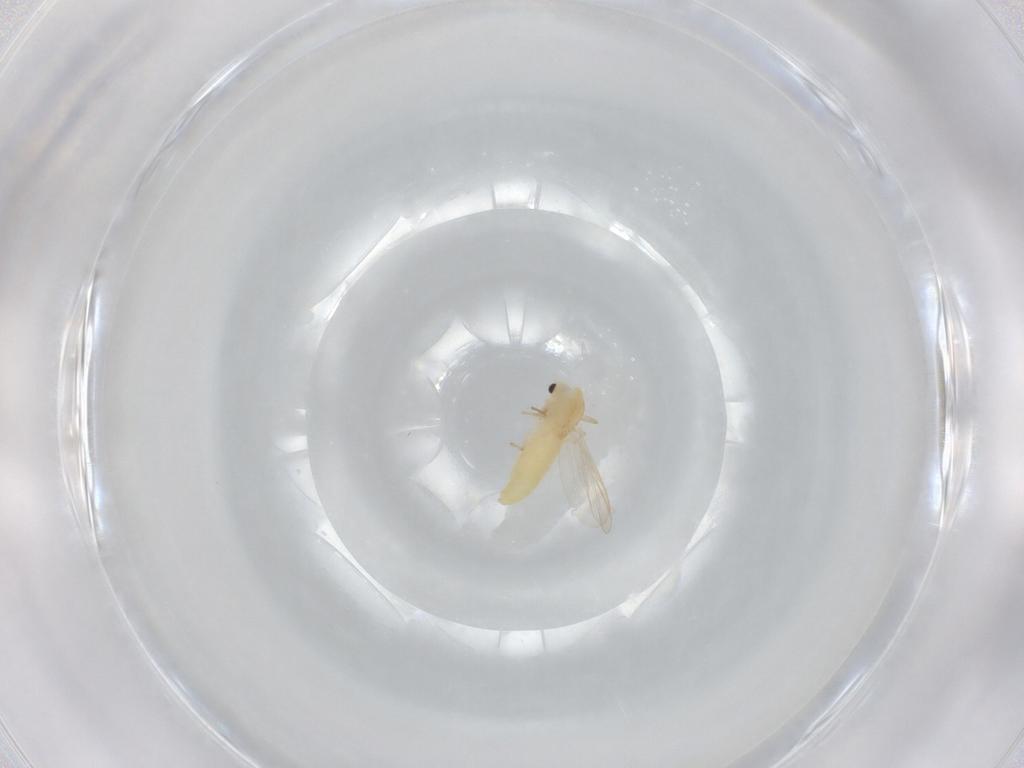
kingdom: Animalia
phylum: Arthropoda
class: Insecta
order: Diptera
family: Chironomidae
